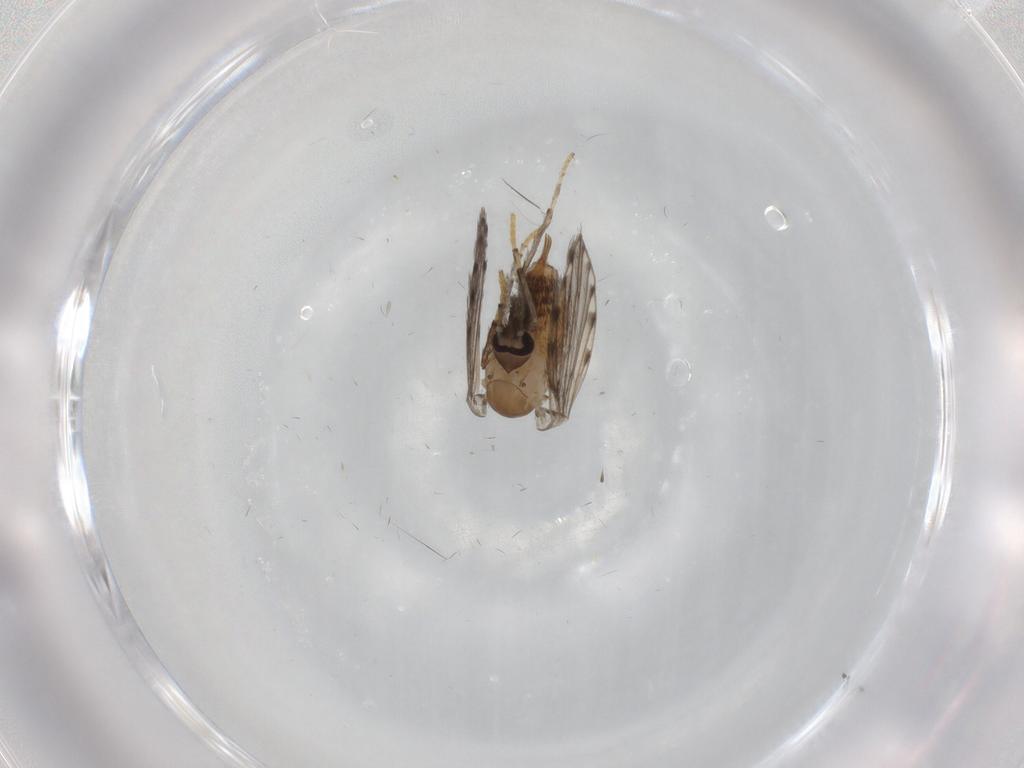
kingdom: Animalia
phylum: Arthropoda
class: Insecta
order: Diptera
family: Psychodidae
